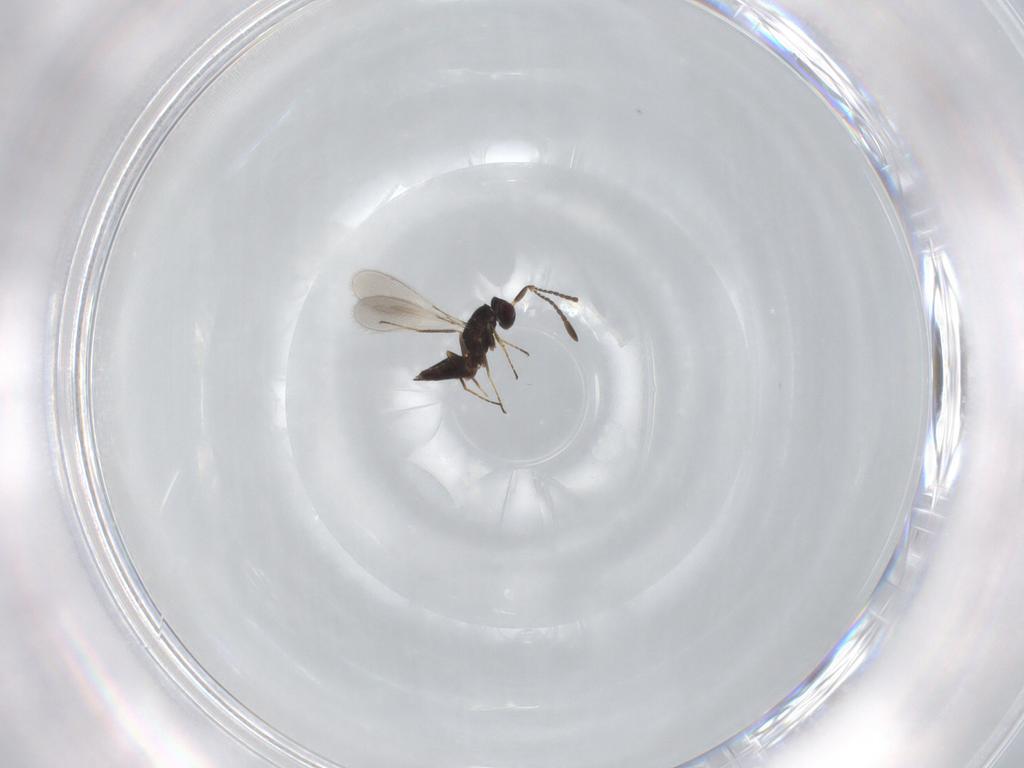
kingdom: Animalia
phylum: Arthropoda
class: Insecta
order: Hymenoptera
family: Mymaridae
